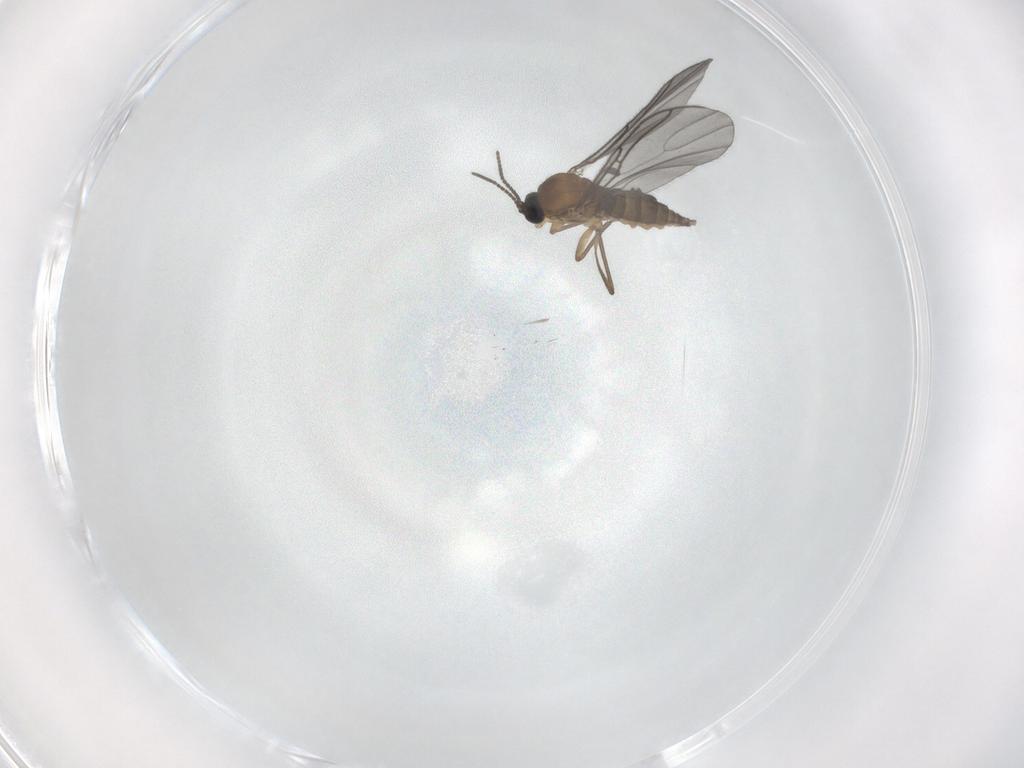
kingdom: Animalia
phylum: Arthropoda
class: Insecta
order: Diptera
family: Sciaridae
